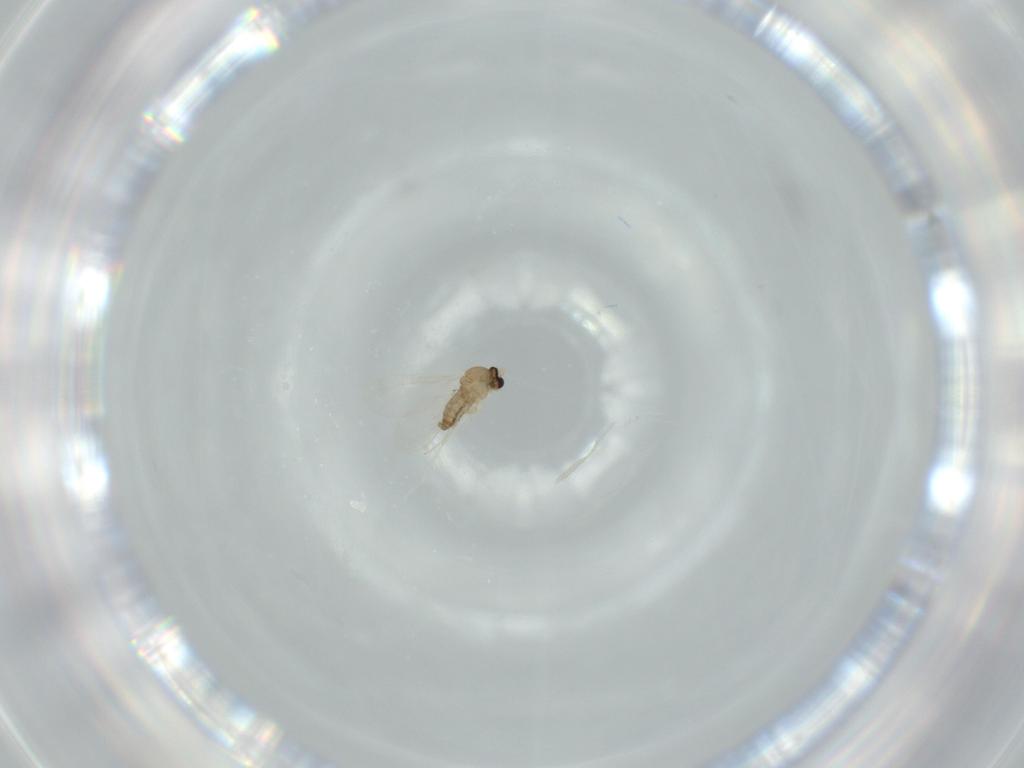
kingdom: Animalia
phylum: Arthropoda
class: Insecta
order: Diptera
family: Cecidomyiidae
